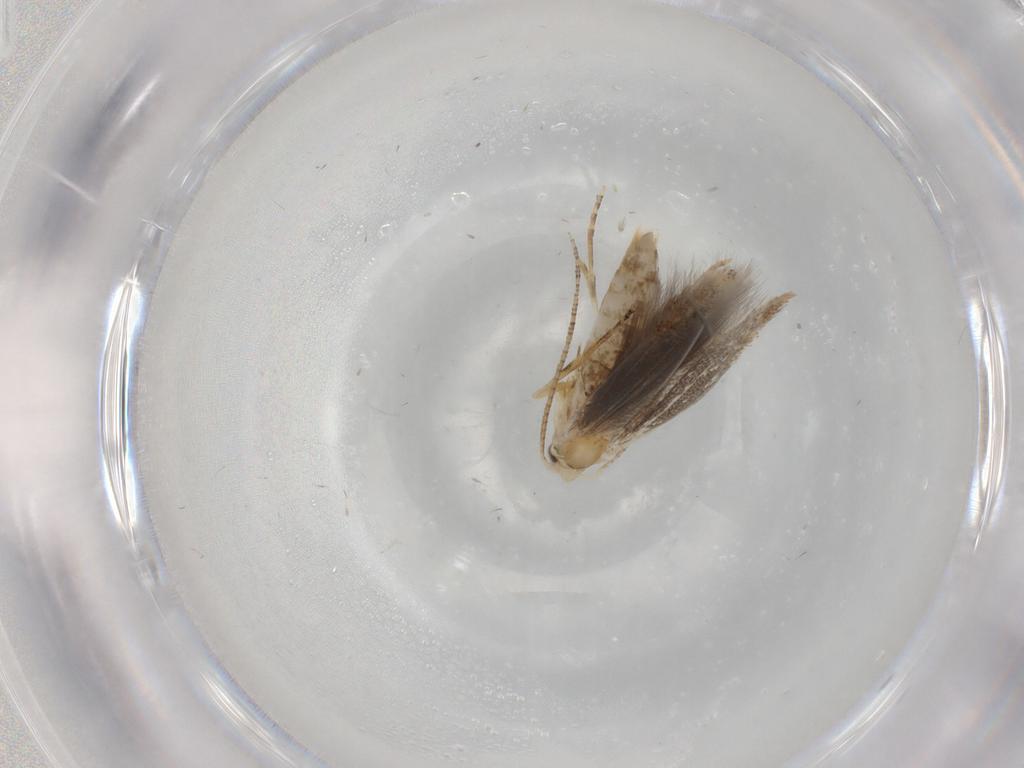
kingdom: Animalia
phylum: Arthropoda
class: Insecta
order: Lepidoptera
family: Bucculatricidae
